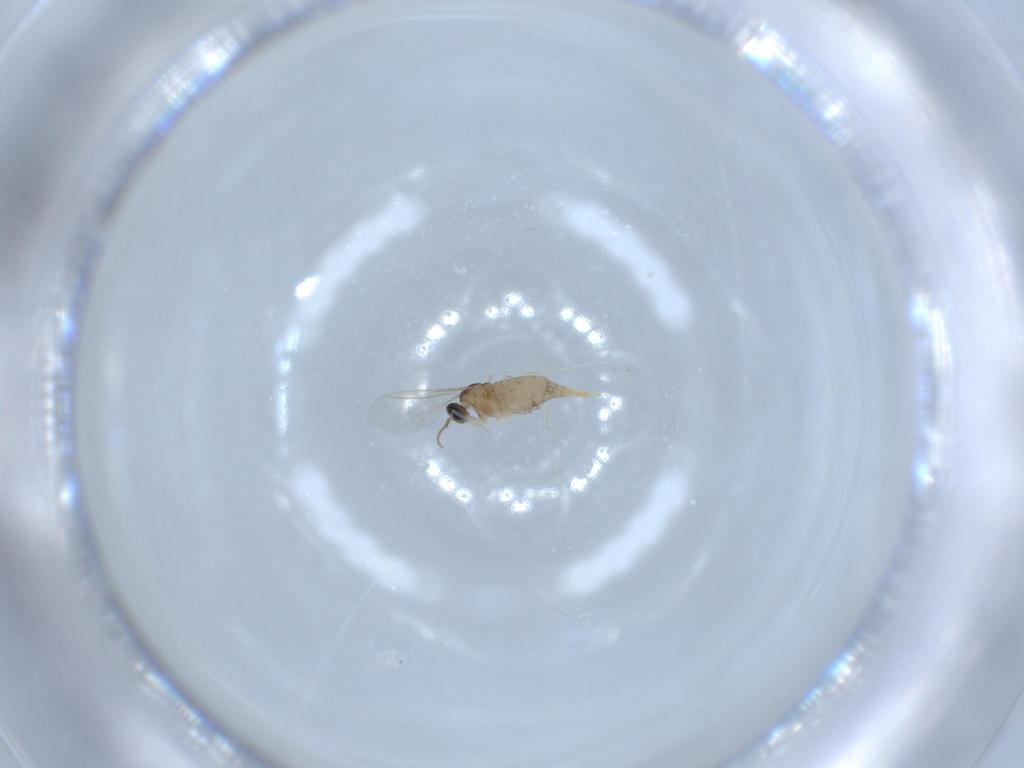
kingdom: Animalia
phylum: Arthropoda
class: Insecta
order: Diptera
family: Cecidomyiidae
